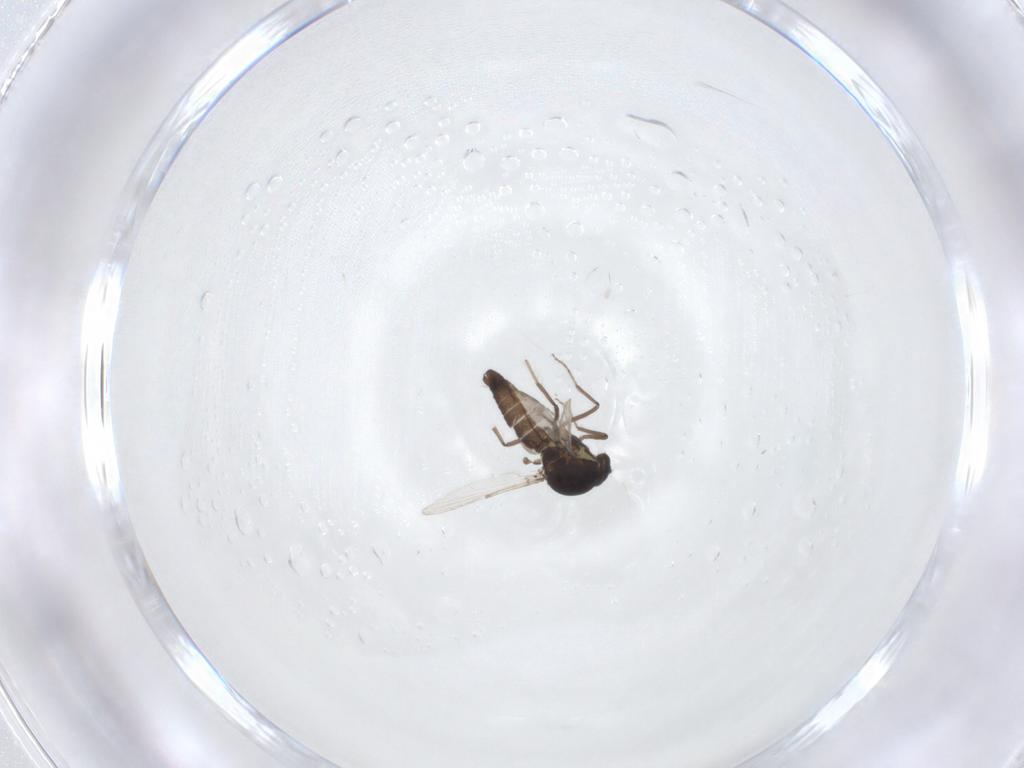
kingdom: Animalia
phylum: Arthropoda
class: Insecta
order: Diptera
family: Ceratopogonidae
